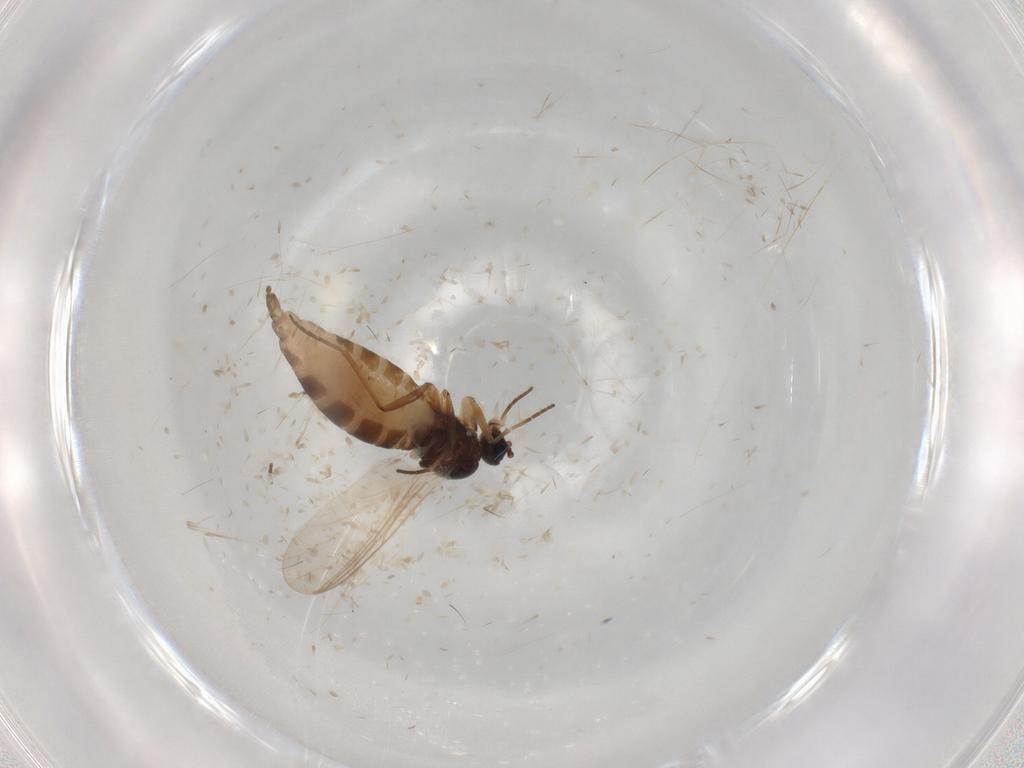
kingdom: Animalia
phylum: Arthropoda
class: Insecta
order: Diptera
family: Sciaridae
